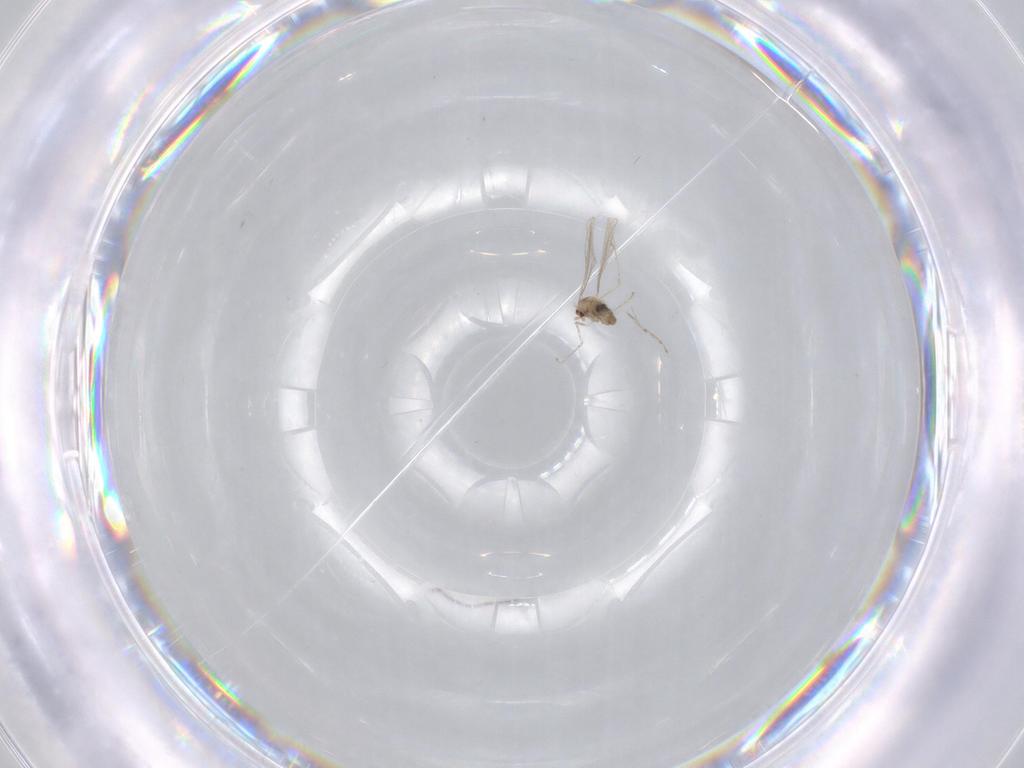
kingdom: Animalia
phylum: Arthropoda
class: Insecta
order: Diptera
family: Cecidomyiidae
